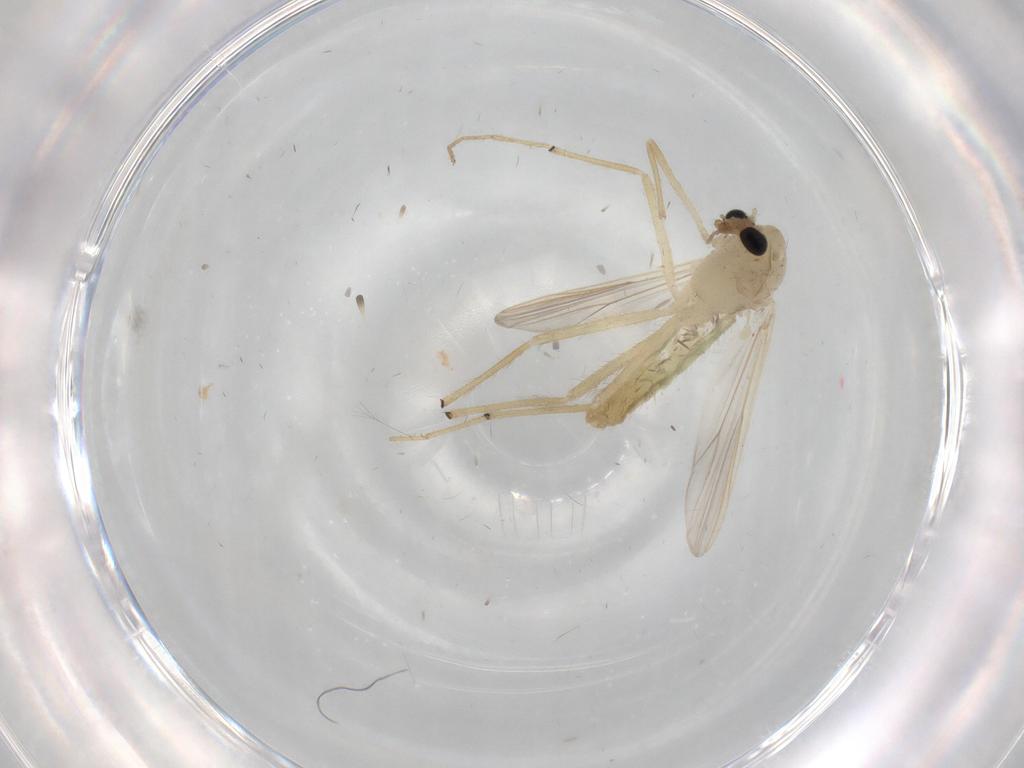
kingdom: Animalia
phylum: Arthropoda
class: Insecta
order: Diptera
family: Chironomidae
